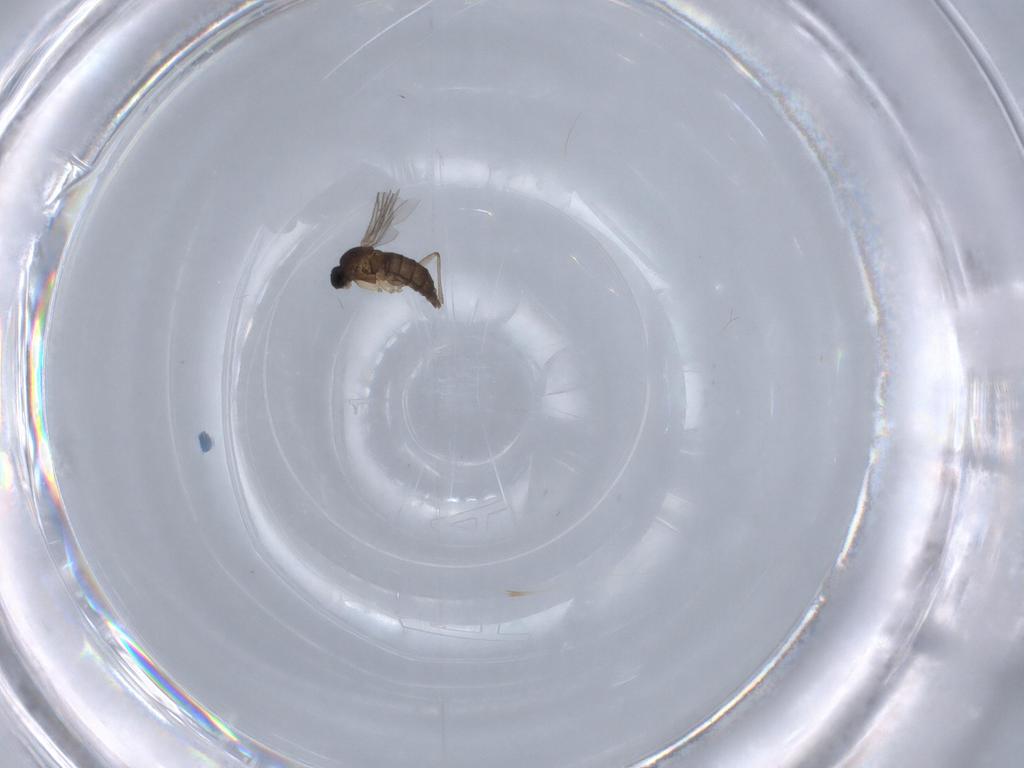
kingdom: Animalia
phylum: Arthropoda
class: Insecta
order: Diptera
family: Sciaridae
